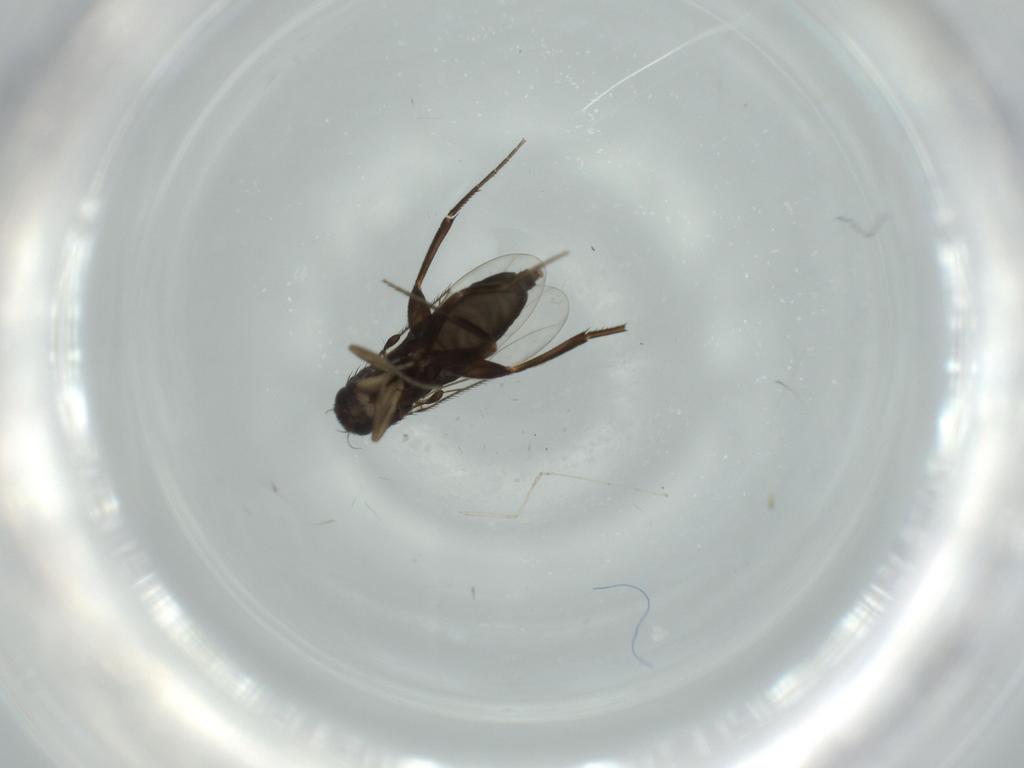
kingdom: Animalia
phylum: Arthropoda
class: Insecta
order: Diptera
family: Phoridae
